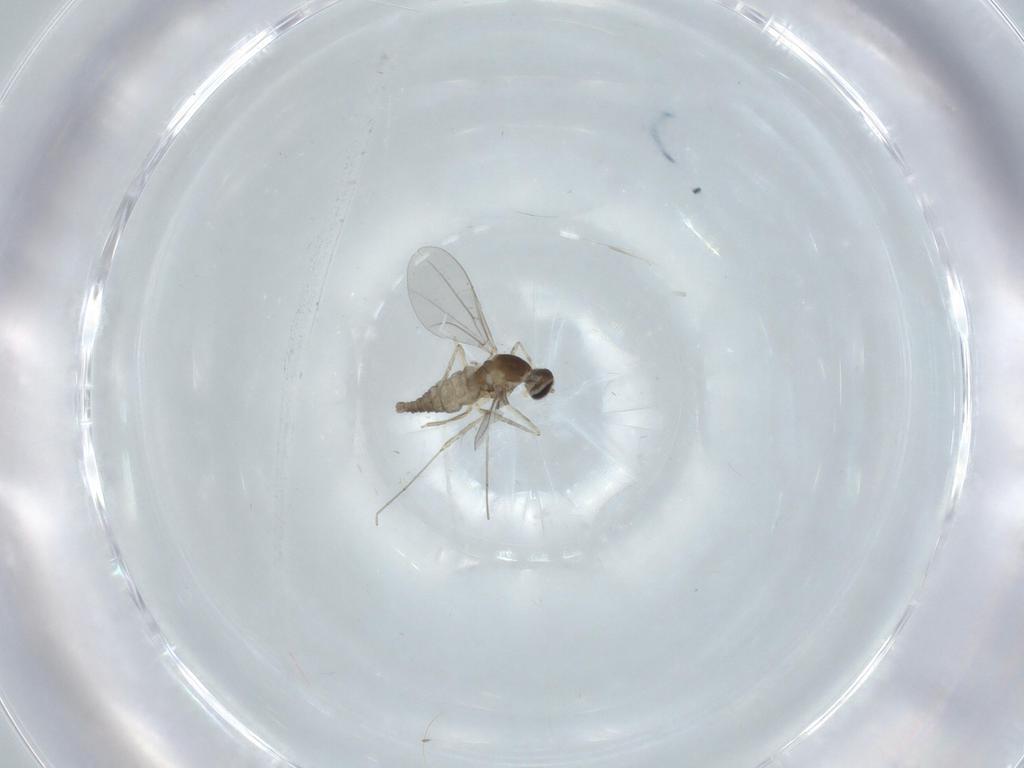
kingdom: Animalia
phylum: Arthropoda
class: Insecta
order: Diptera
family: Cecidomyiidae
